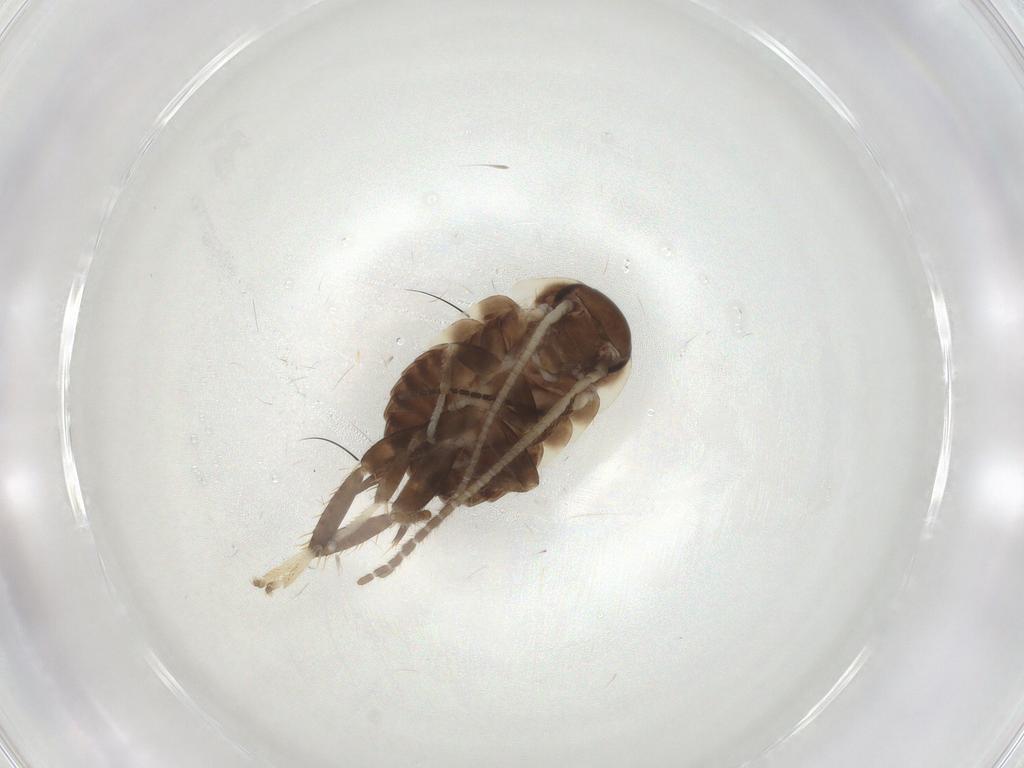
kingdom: Animalia
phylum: Arthropoda
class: Insecta
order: Blattodea
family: Blaberidae
